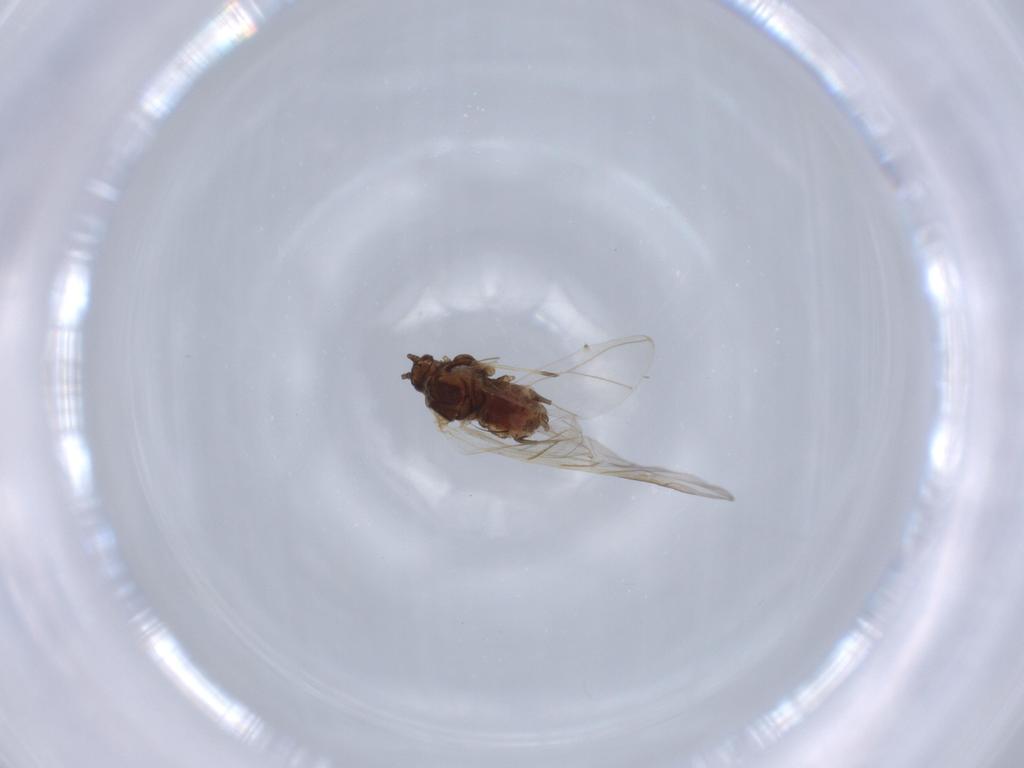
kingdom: Animalia
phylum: Arthropoda
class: Insecta
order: Hemiptera
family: Aphididae
